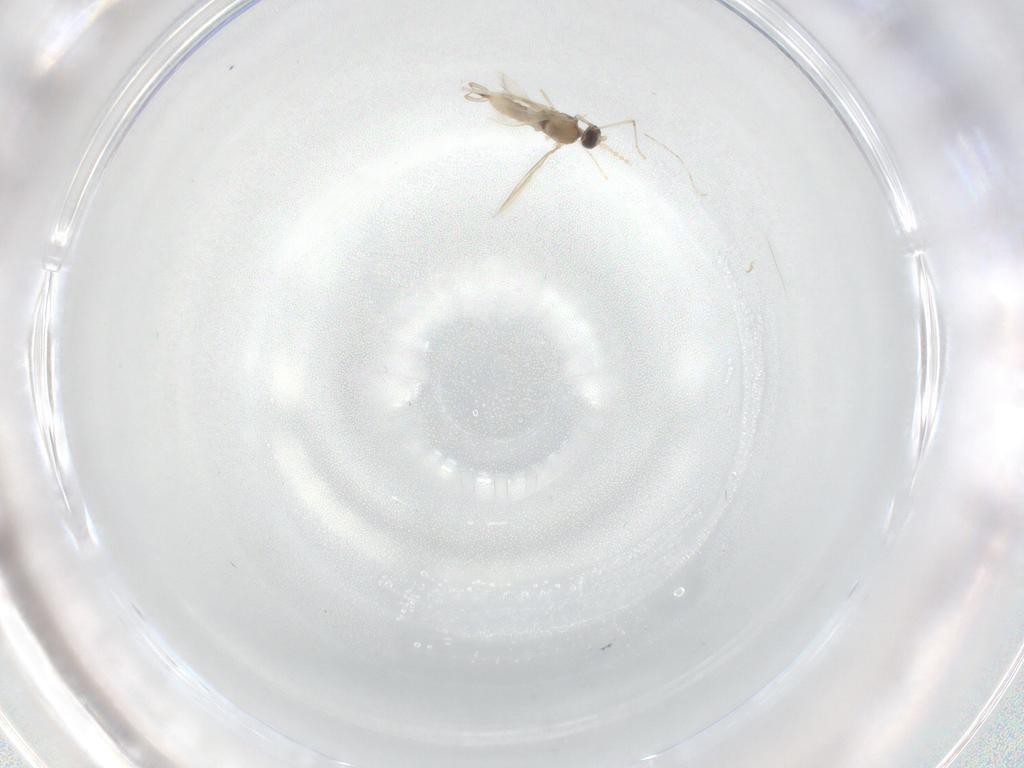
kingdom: Animalia
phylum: Arthropoda
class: Insecta
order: Diptera
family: Cecidomyiidae
